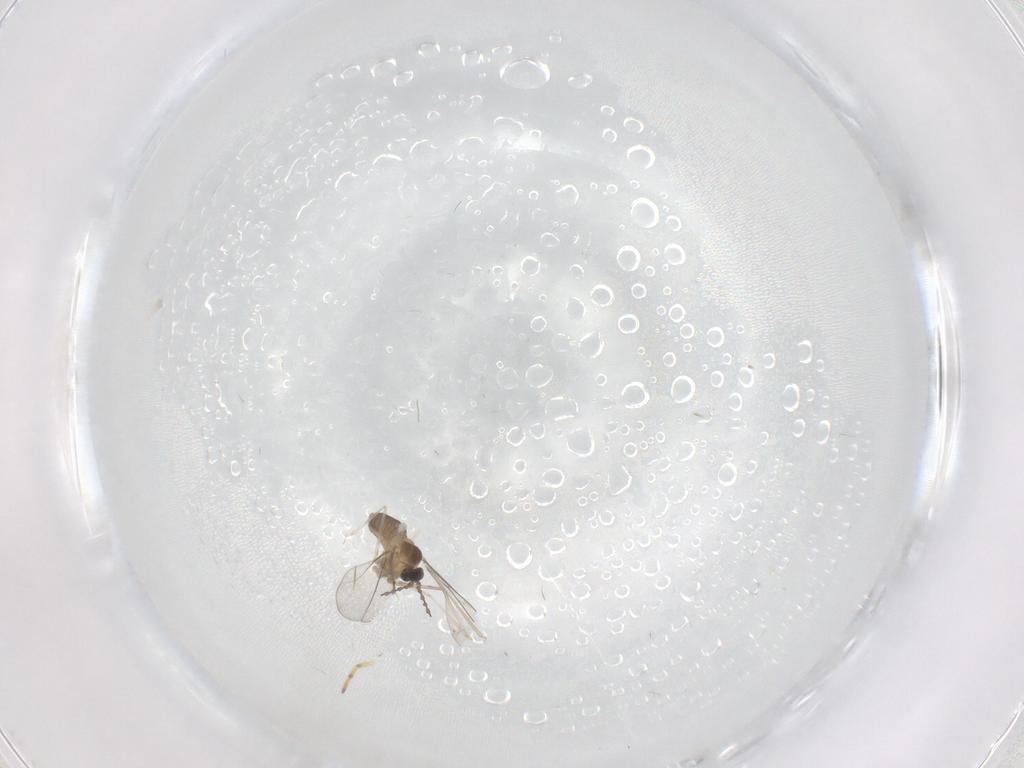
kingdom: Animalia
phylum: Arthropoda
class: Insecta
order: Diptera
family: Cecidomyiidae
